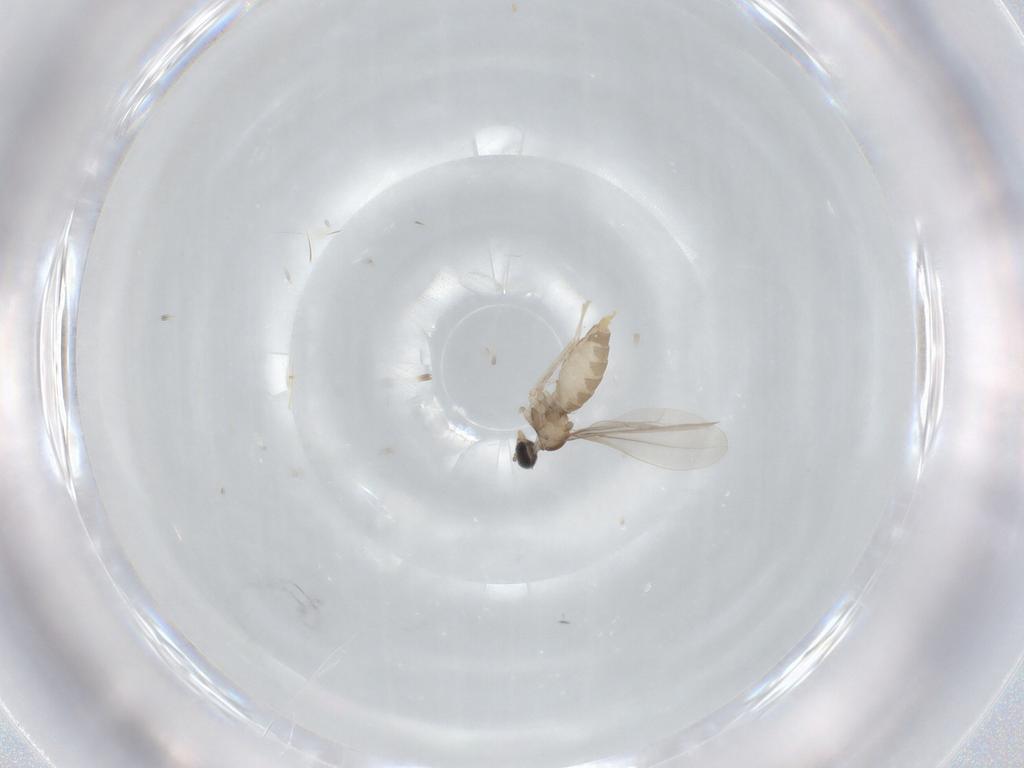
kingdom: Animalia
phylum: Arthropoda
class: Insecta
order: Diptera
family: Cecidomyiidae
